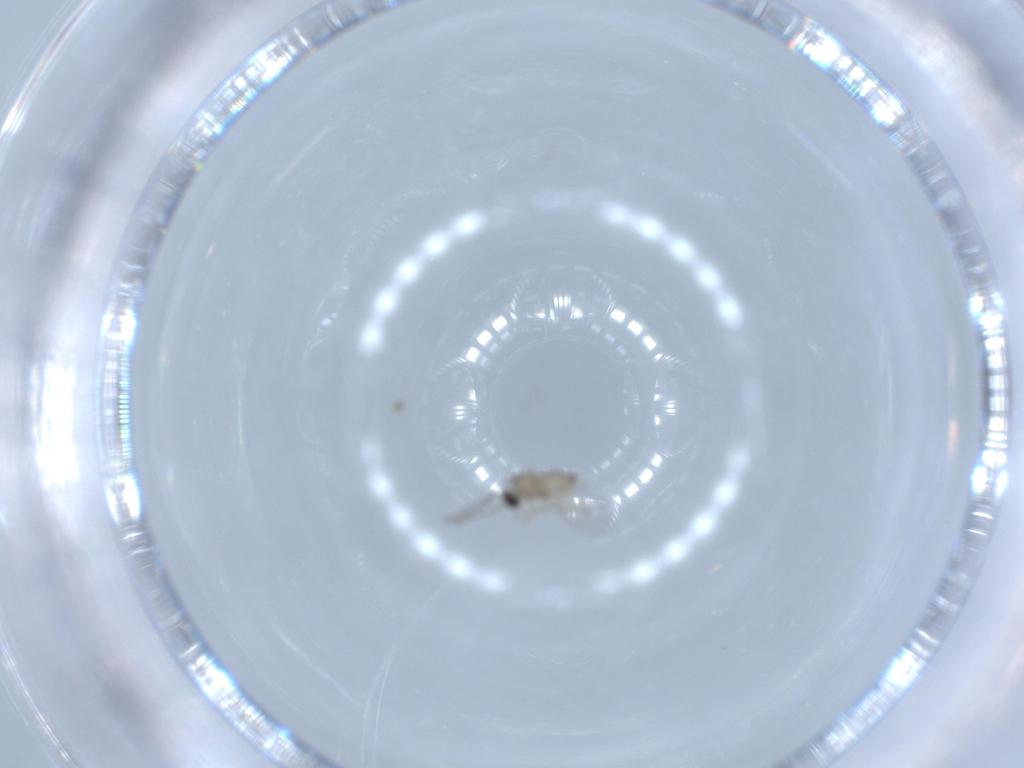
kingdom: Animalia
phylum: Arthropoda
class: Insecta
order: Diptera
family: Cecidomyiidae
